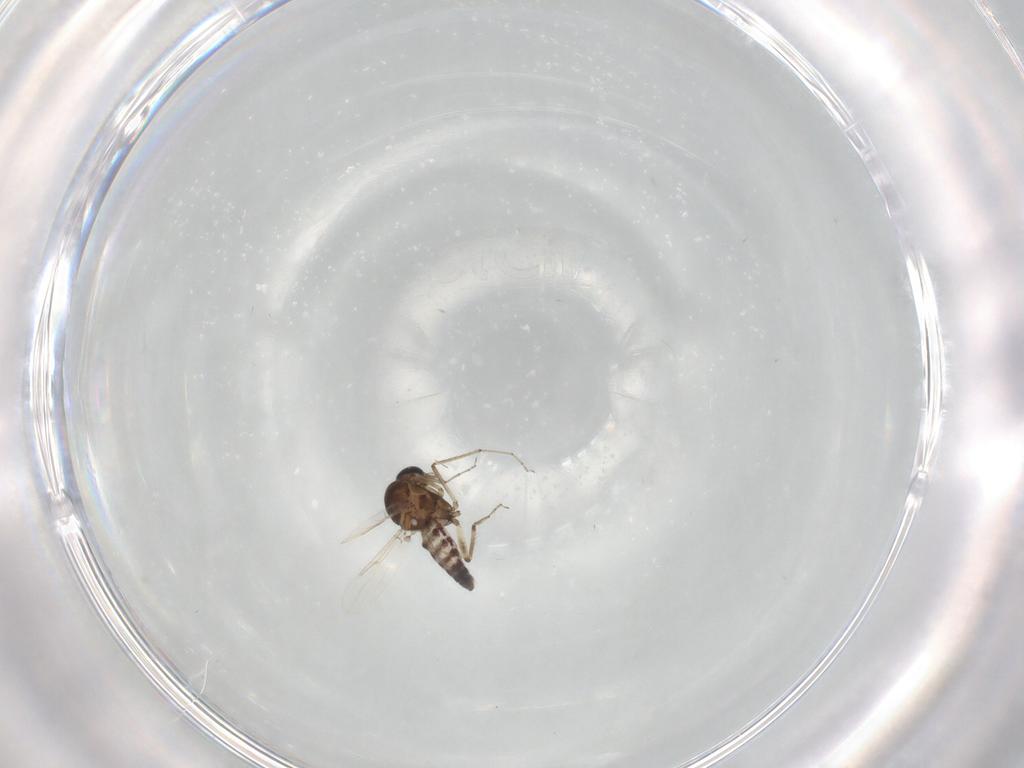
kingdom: Animalia
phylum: Arthropoda
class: Insecta
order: Diptera
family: Ceratopogonidae
